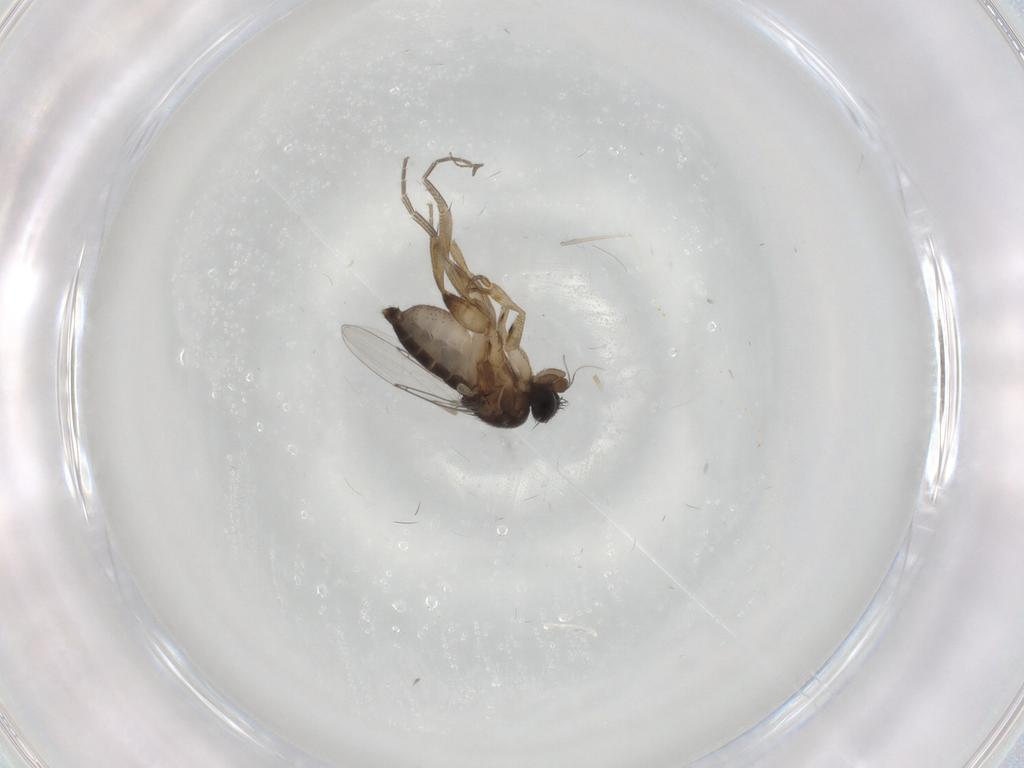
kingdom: Animalia
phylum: Arthropoda
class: Insecta
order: Diptera
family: Phoridae
